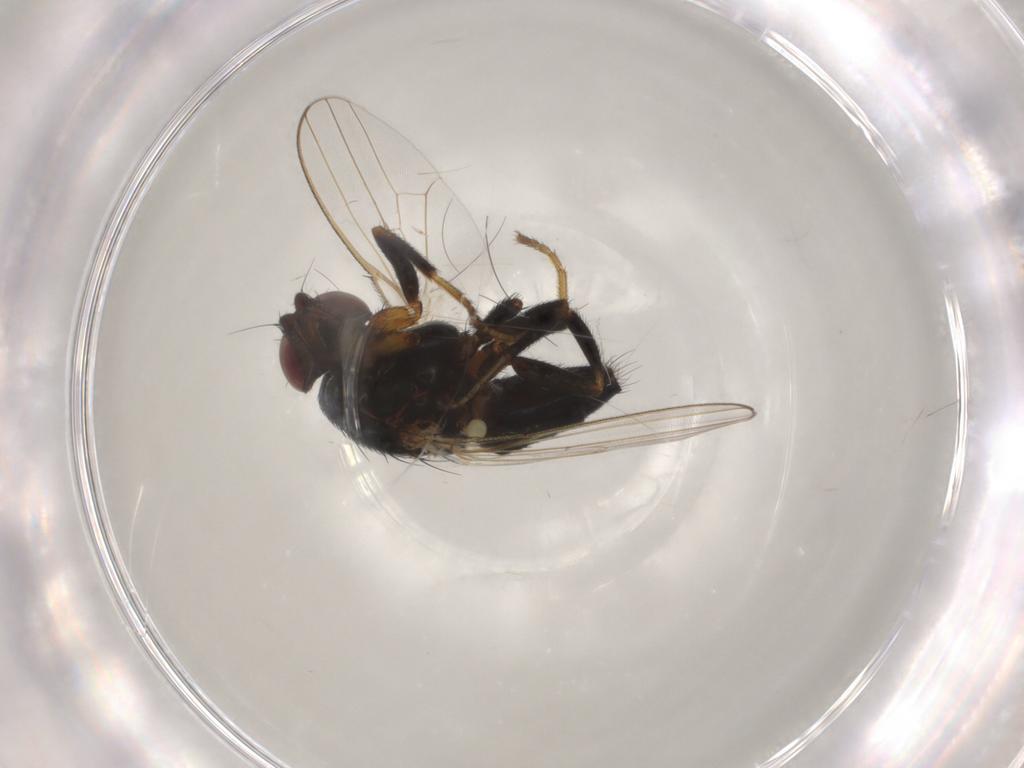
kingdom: Animalia
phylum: Arthropoda
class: Insecta
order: Diptera
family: Milichiidae
